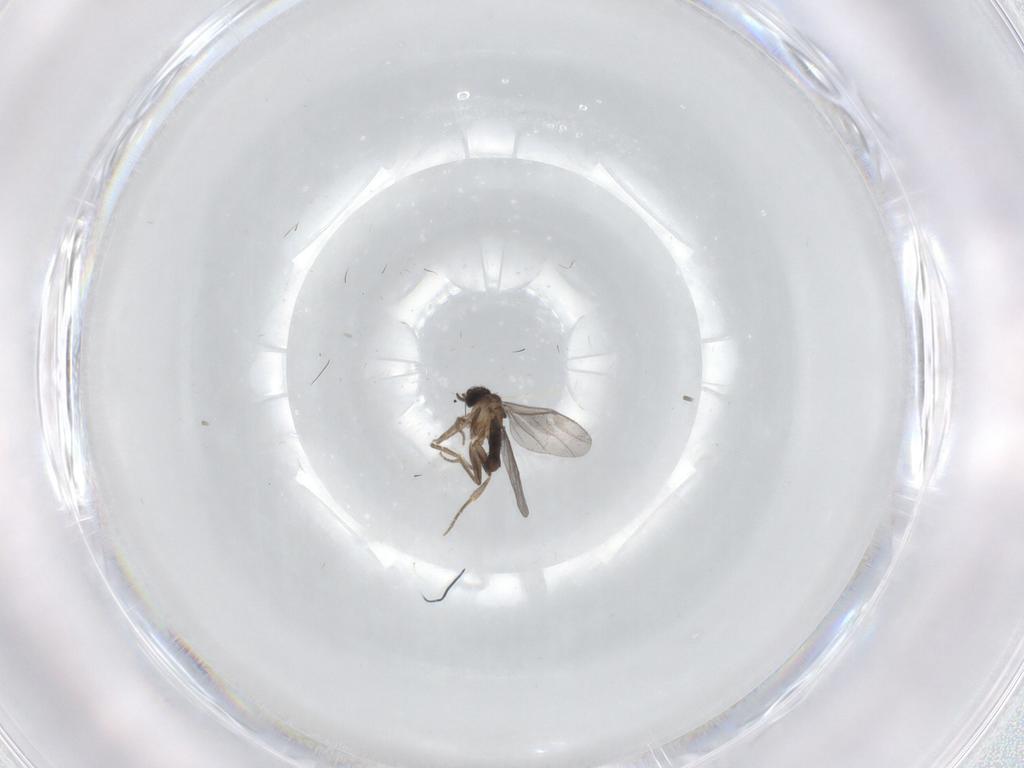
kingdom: Animalia
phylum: Arthropoda
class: Insecta
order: Diptera
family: Sciaridae
